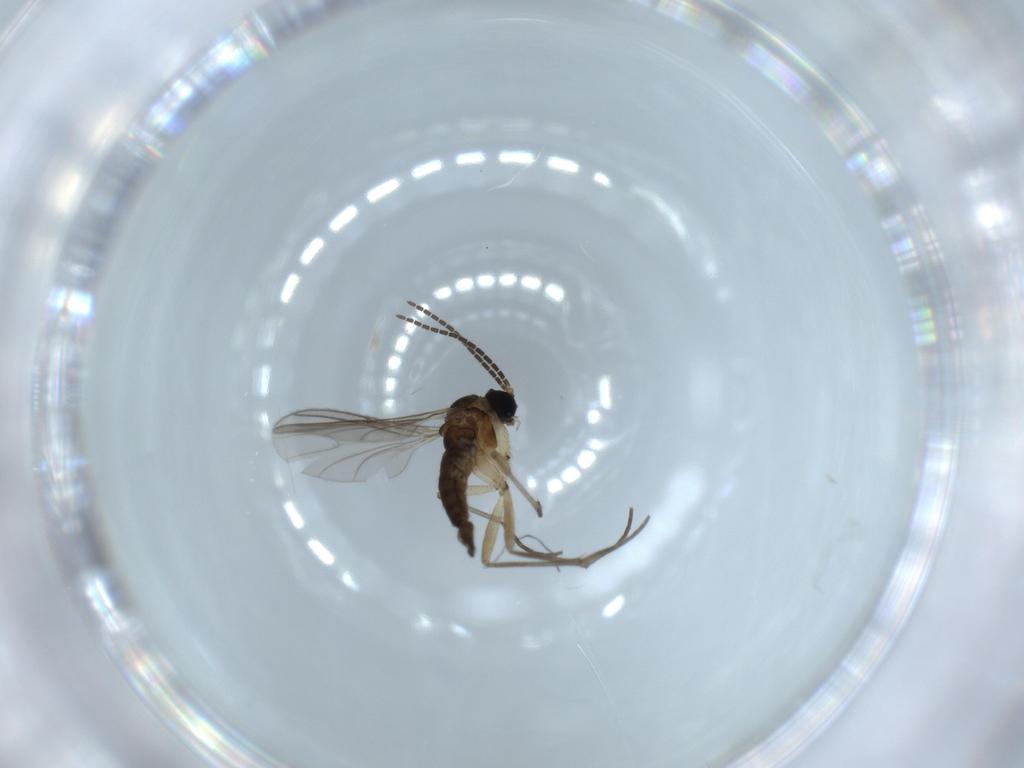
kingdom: Animalia
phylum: Arthropoda
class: Insecta
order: Diptera
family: Sciaridae
